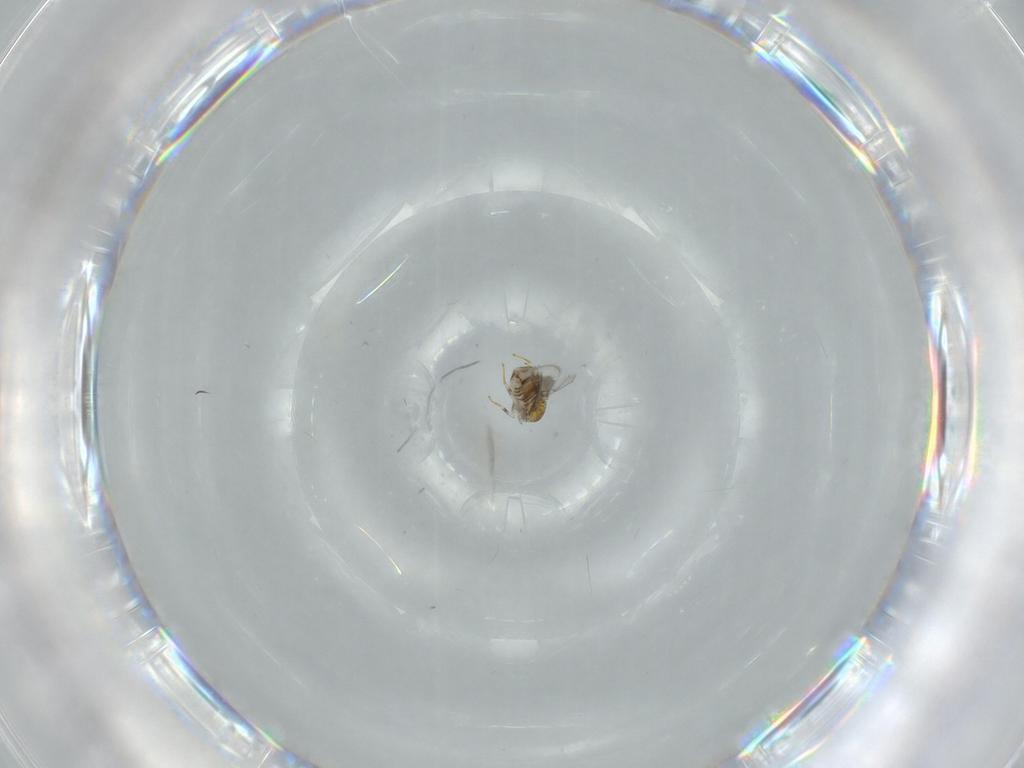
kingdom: Animalia
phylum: Arthropoda
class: Insecta
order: Hymenoptera
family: Aphelinidae
